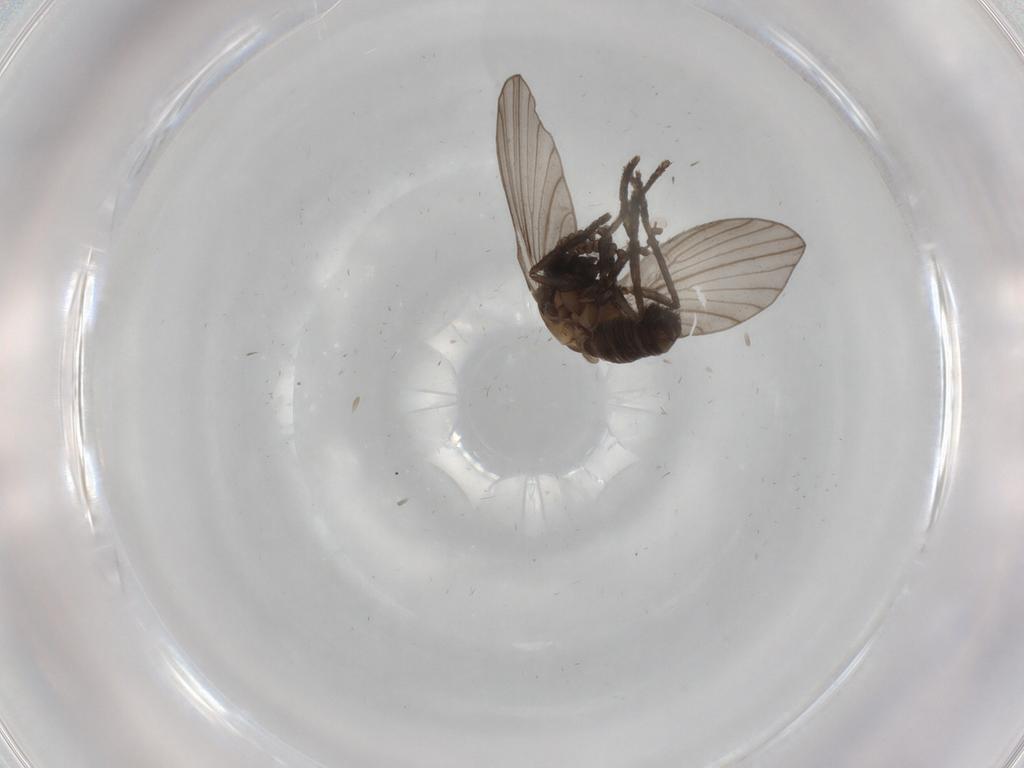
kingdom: Animalia
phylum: Arthropoda
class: Insecta
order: Diptera
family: Psychodidae
